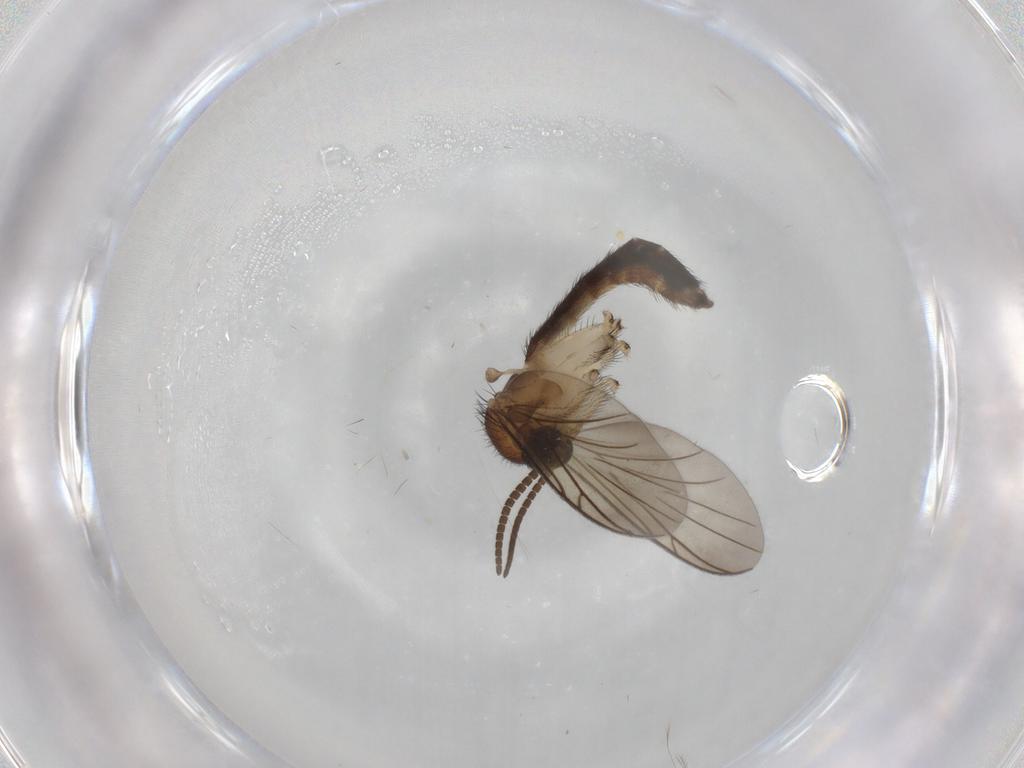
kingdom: Animalia
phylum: Arthropoda
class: Insecta
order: Diptera
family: Keroplatidae
